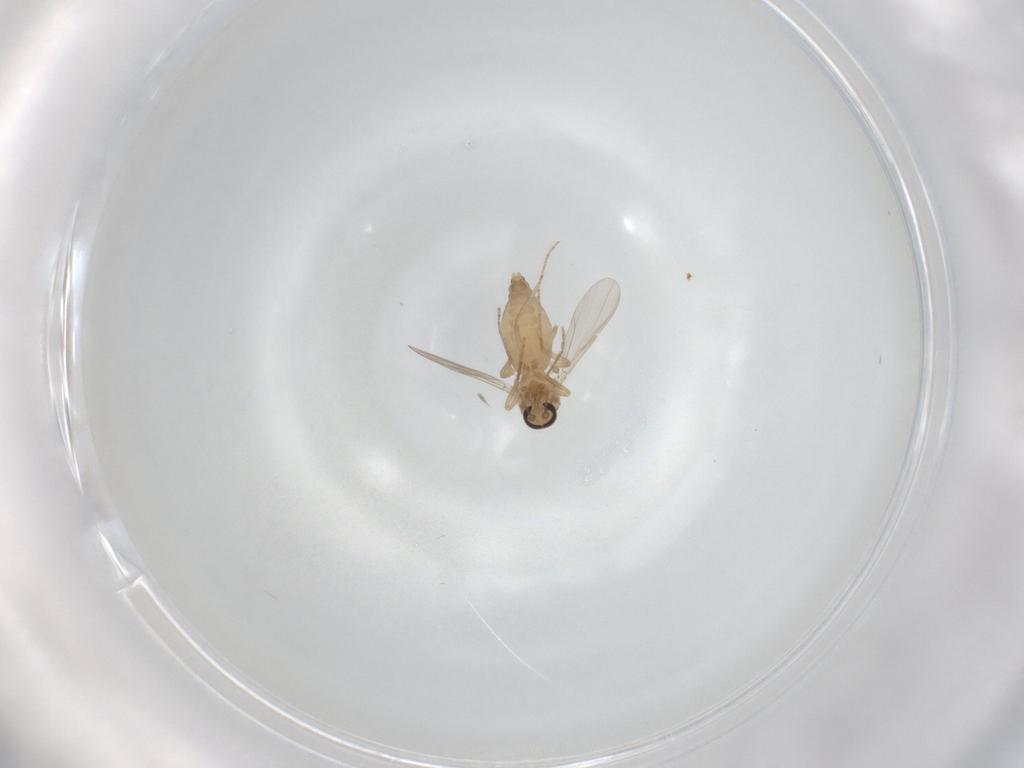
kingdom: Animalia
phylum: Arthropoda
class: Insecta
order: Diptera
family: Ceratopogonidae
